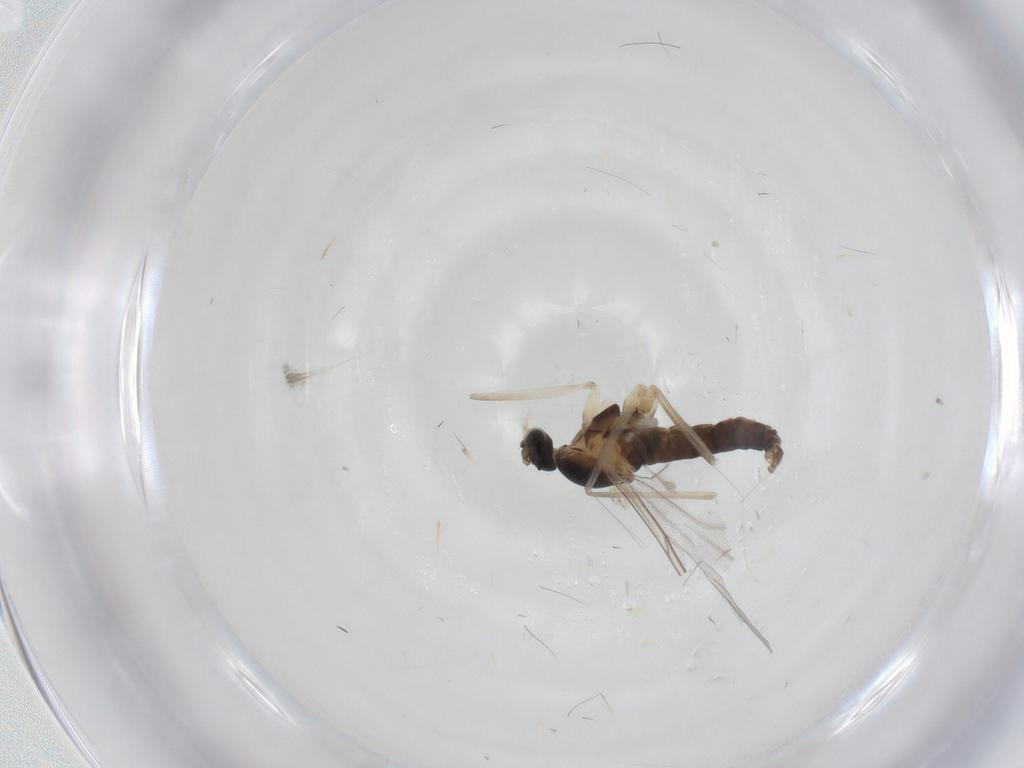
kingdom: Animalia
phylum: Arthropoda
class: Insecta
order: Diptera
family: Cecidomyiidae
